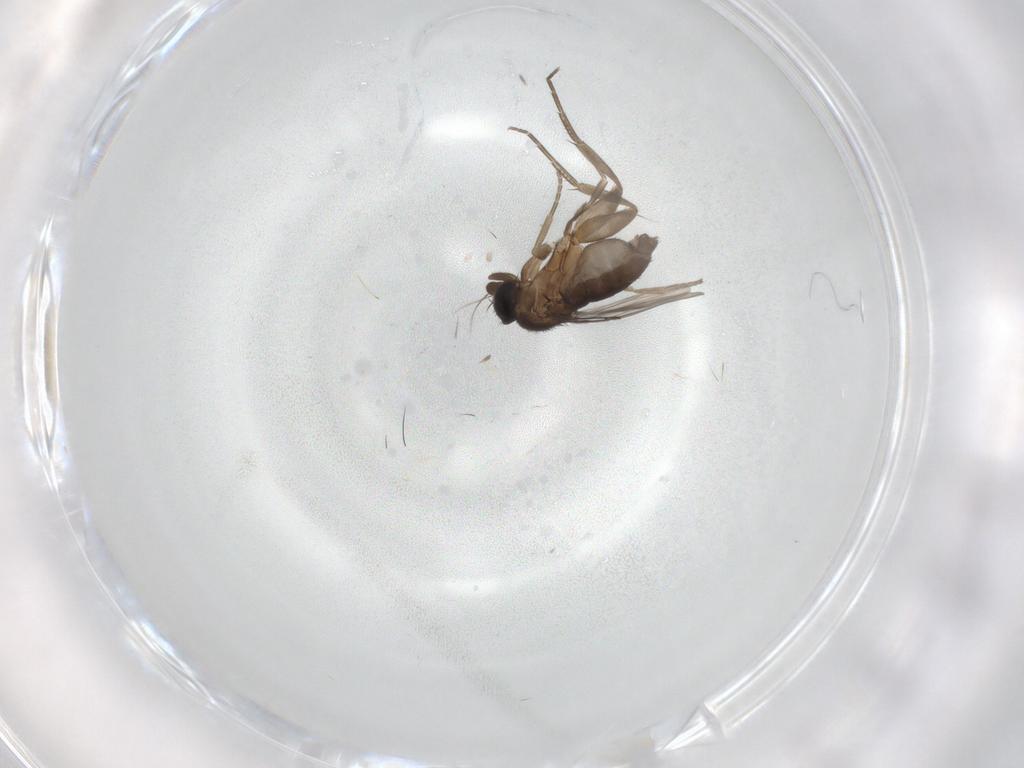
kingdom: Animalia
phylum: Arthropoda
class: Insecta
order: Diptera
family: Phoridae
